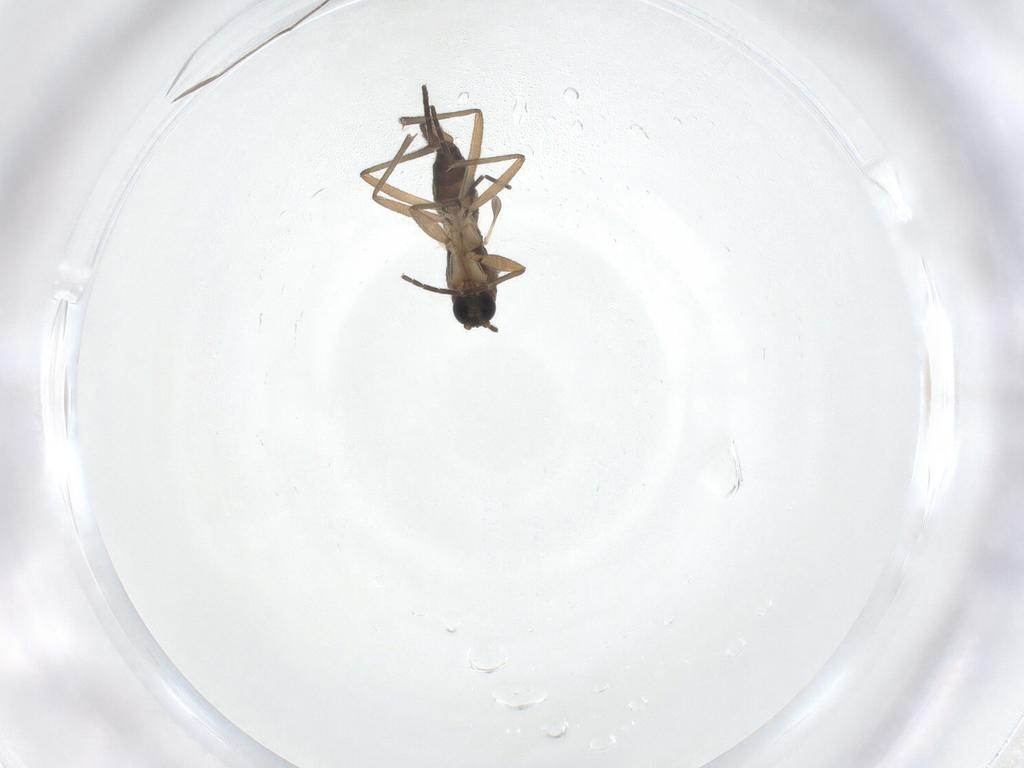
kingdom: Animalia
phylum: Arthropoda
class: Insecta
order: Diptera
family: Sciaridae
